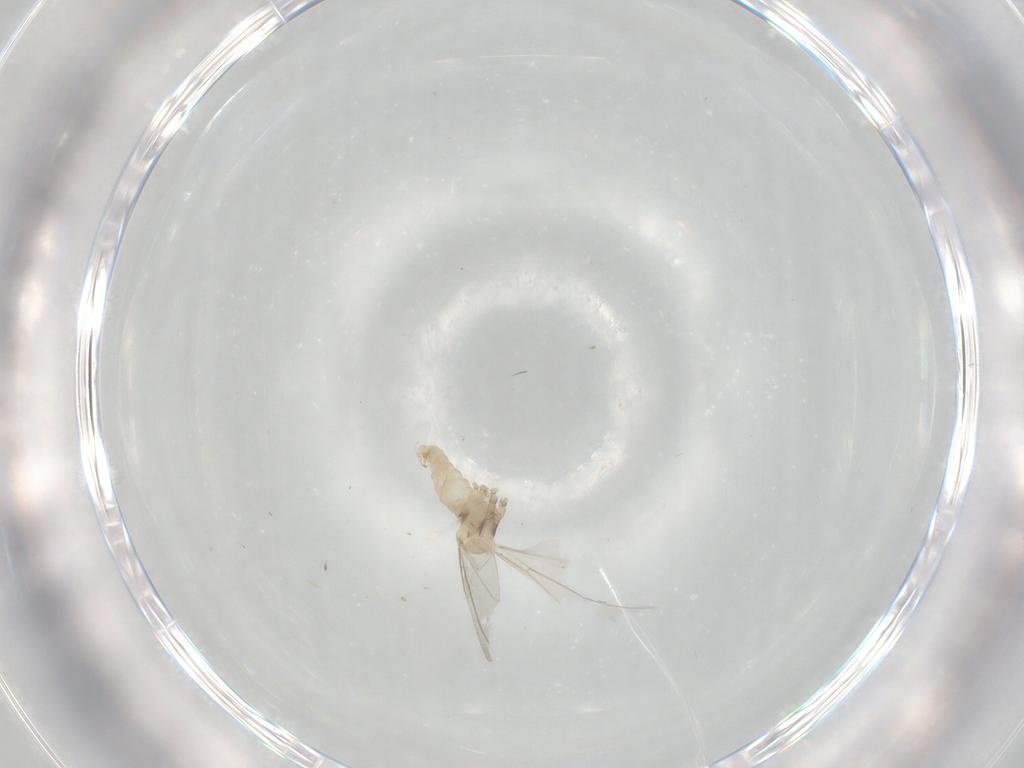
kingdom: Animalia
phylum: Arthropoda
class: Insecta
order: Diptera
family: Cecidomyiidae
